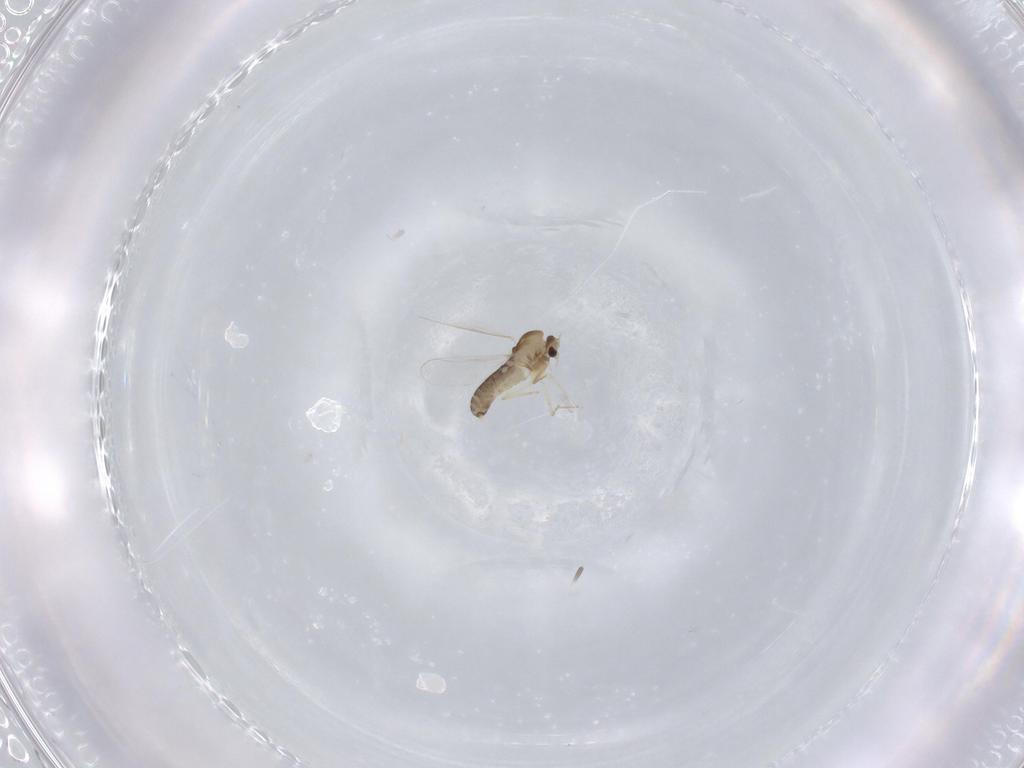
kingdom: Animalia
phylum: Arthropoda
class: Insecta
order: Diptera
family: Chironomidae
